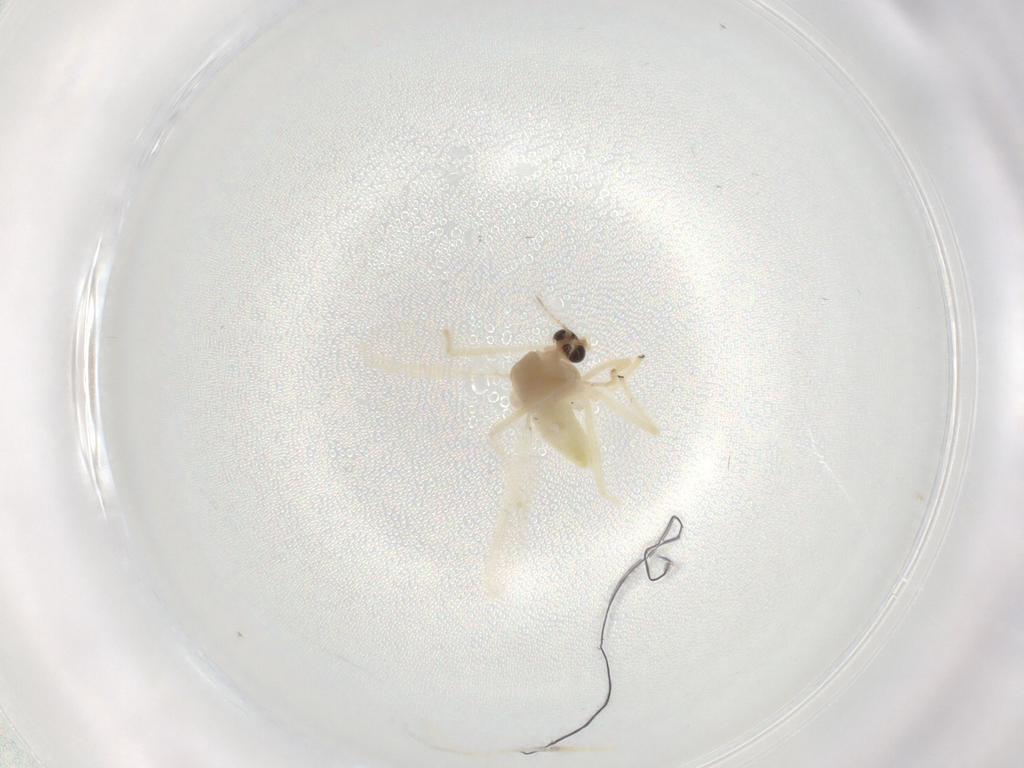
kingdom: Animalia
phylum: Arthropoda
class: Insecta
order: Diptera
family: Chironomidae
